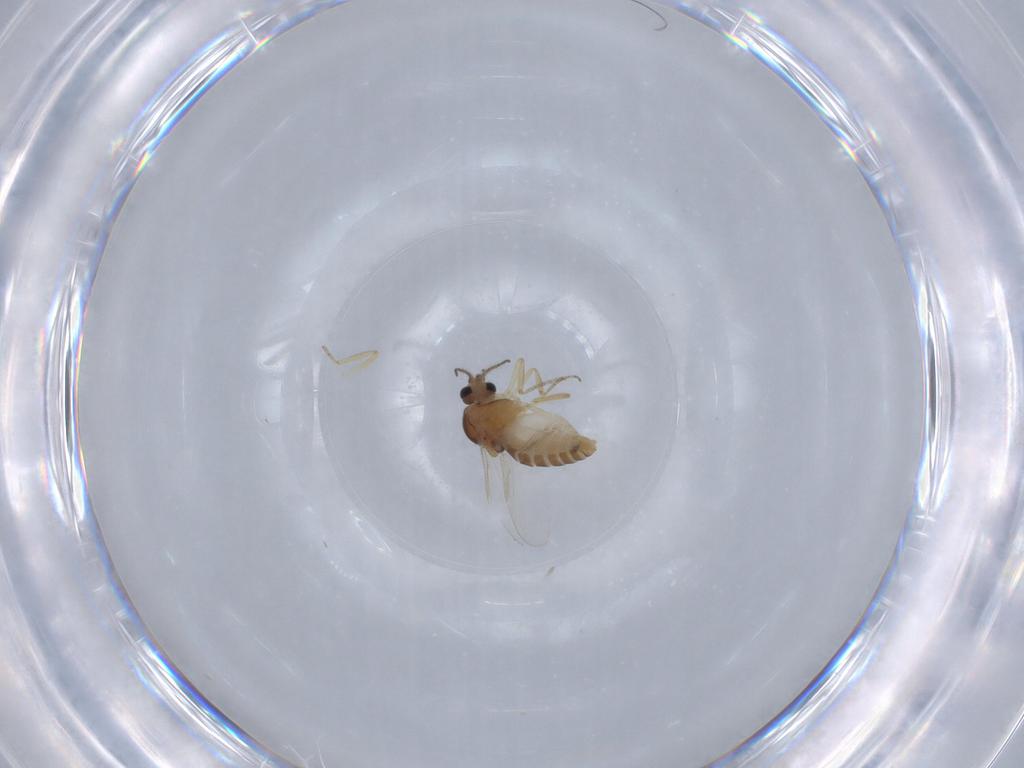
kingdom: Animalia
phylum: Arthropoda
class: Insecta
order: Diptera
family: Ceratopogonidae
